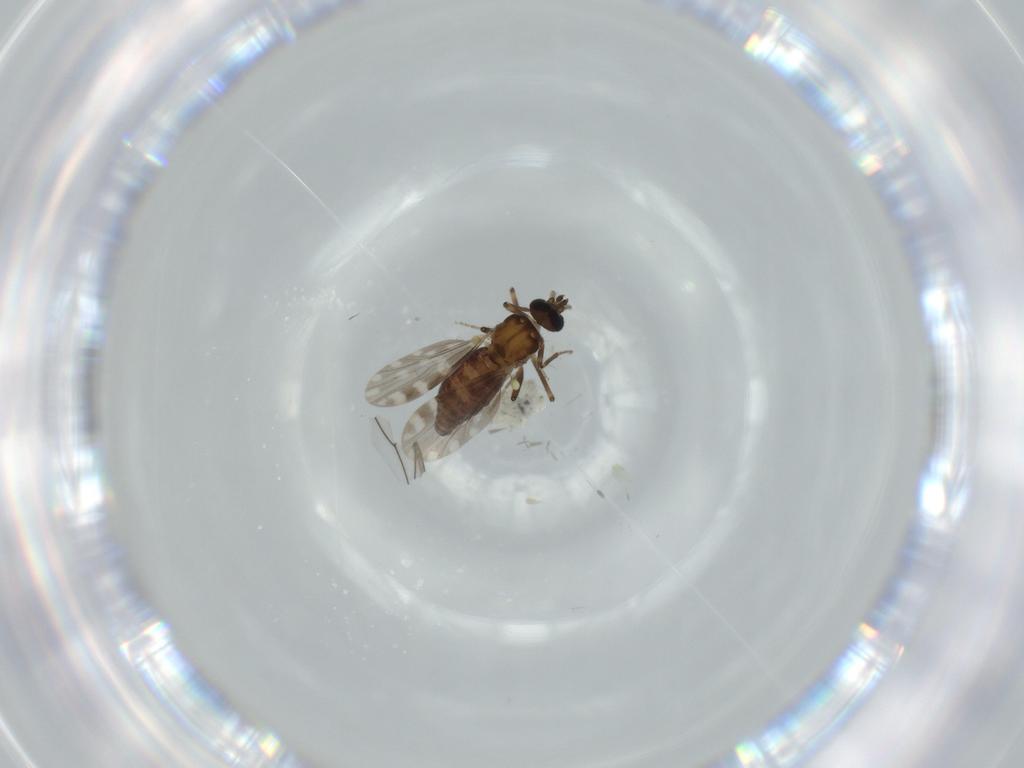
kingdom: Animalia
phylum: Arthropoda
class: Insecta
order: Diptera
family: Ceratopogonidae
